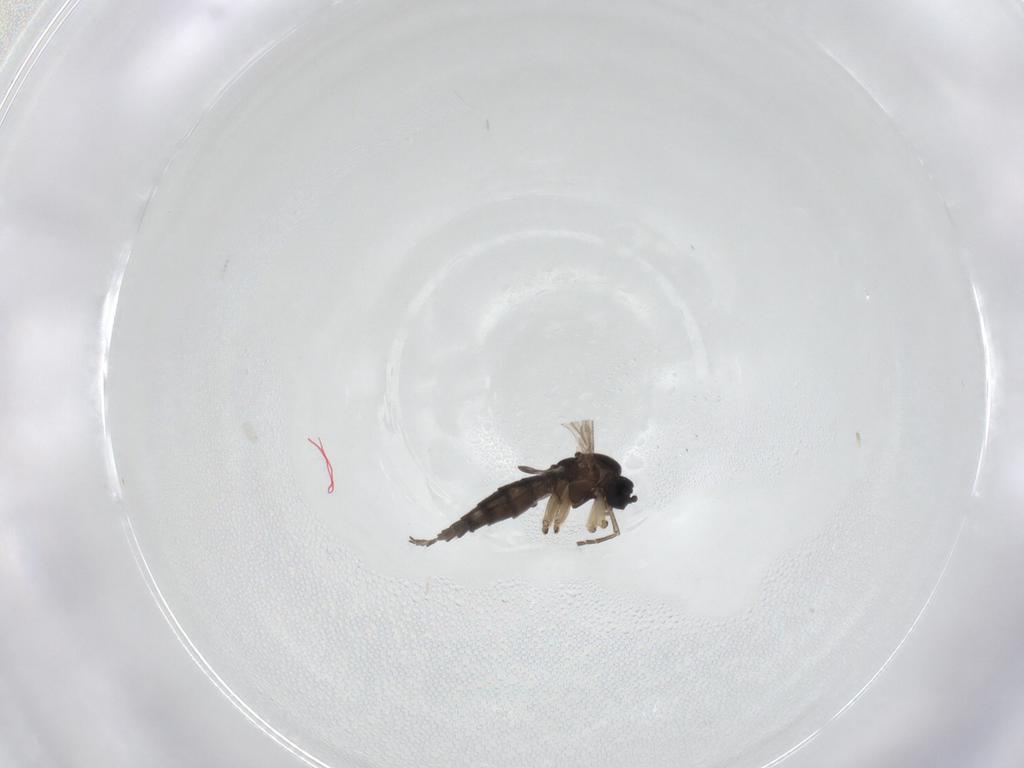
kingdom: Animalia
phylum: Arthropoda
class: Insecta
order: Diptera
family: Sciaridae
